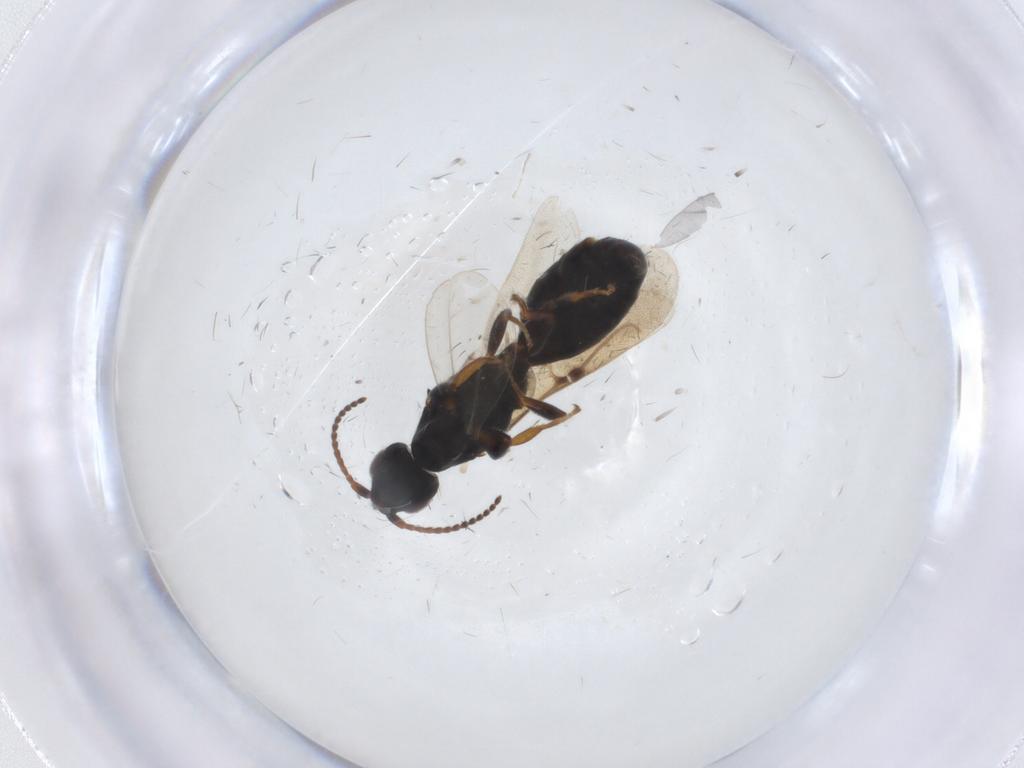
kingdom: Animalia
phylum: Arthropoda
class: Insecta
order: Hymenoptera
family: Bethylidae
